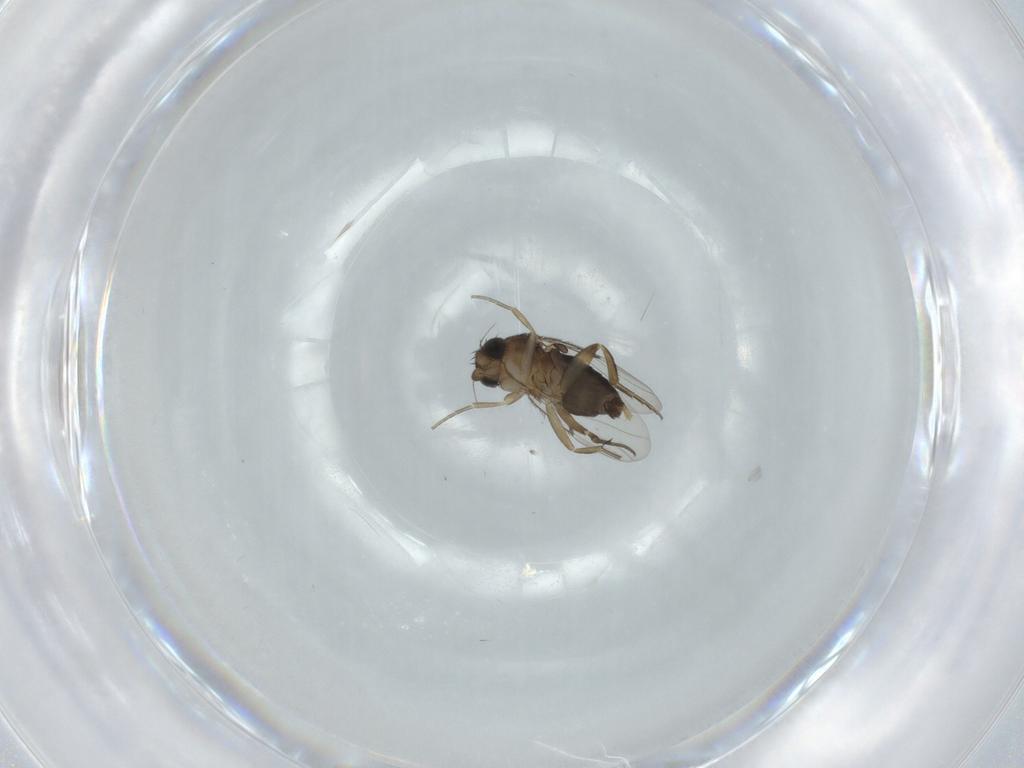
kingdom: Animalia
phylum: Arthropoda
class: Insecta
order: Diptera
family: Phoridae
